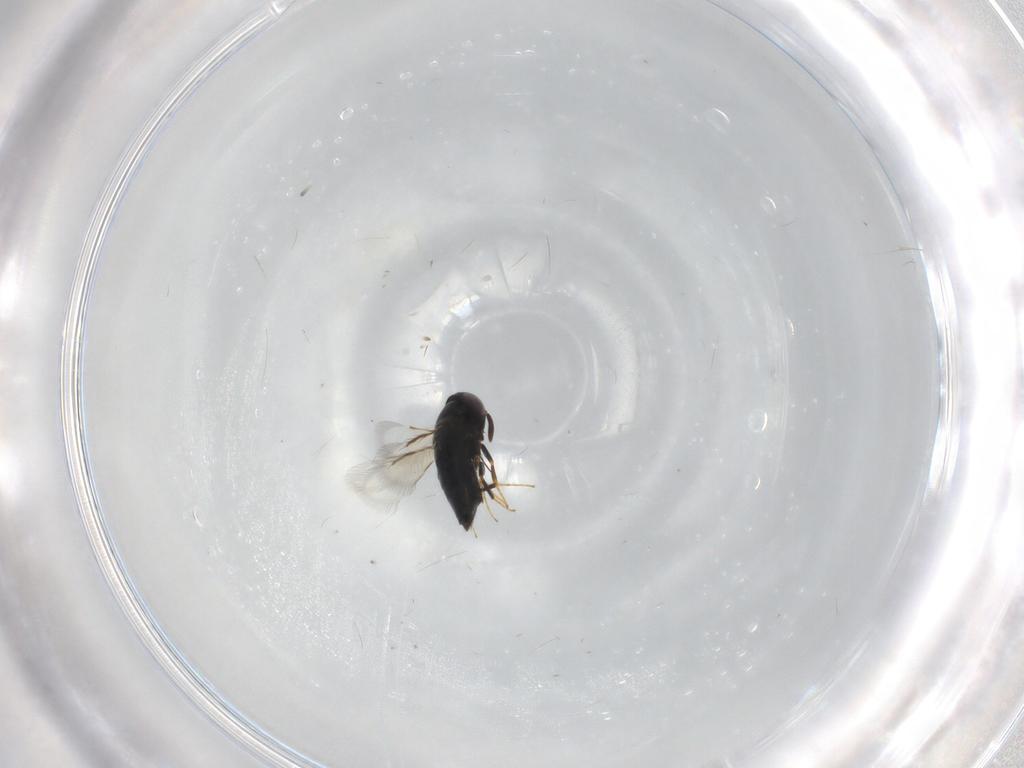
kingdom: Animalia
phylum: Arthropoda
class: Insecta
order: Hymenoptera
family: Signiphoridae
